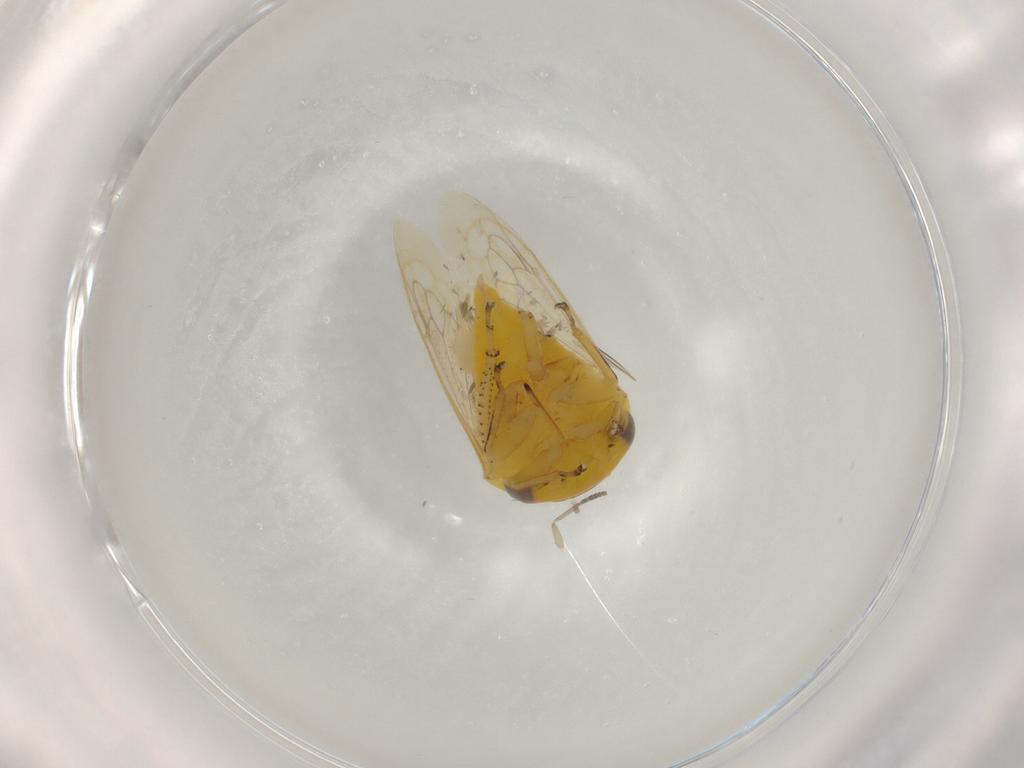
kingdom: Animalia
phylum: Arthropoda
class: Insecta
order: Hemiptera
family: Membracidae
